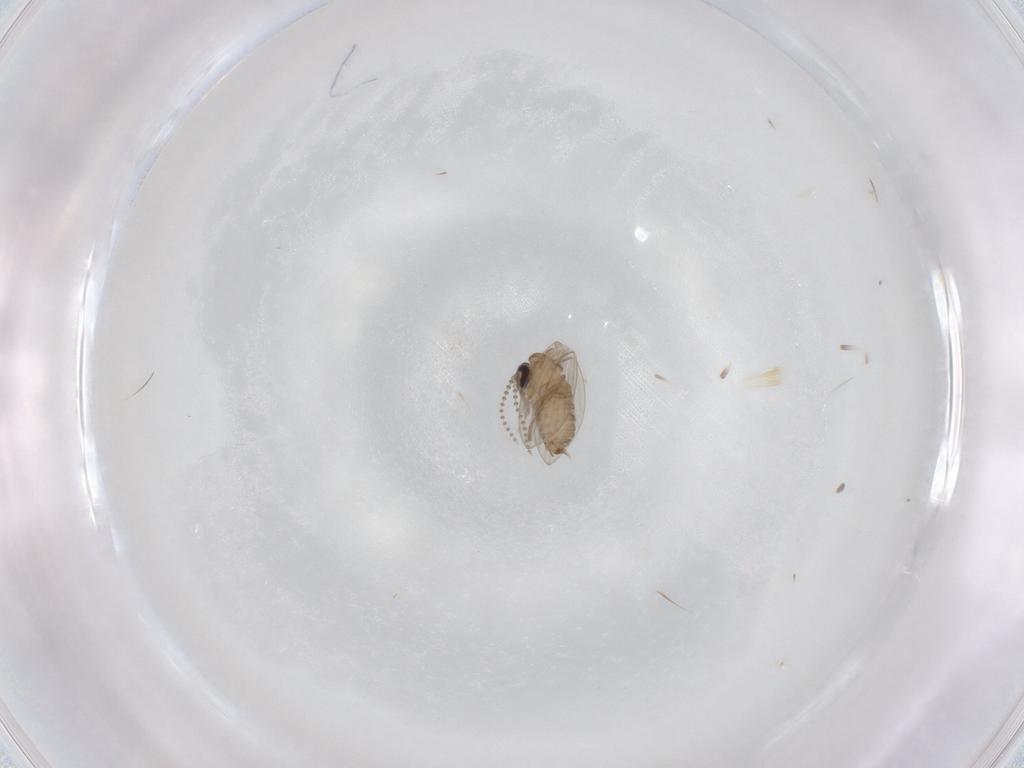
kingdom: Animalia
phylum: Arthropoda
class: Insecta
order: Diptera
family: Psychodidae
